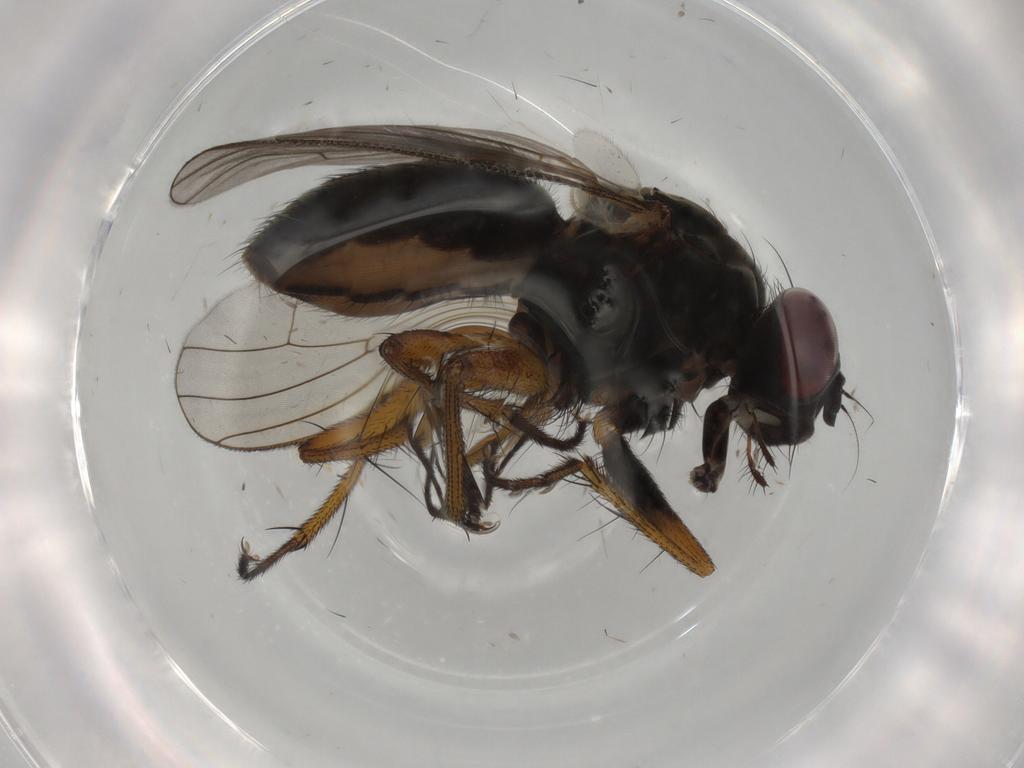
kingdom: Animalia
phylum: Arthropoda
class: Insecta
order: Diptera
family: Muscidae
